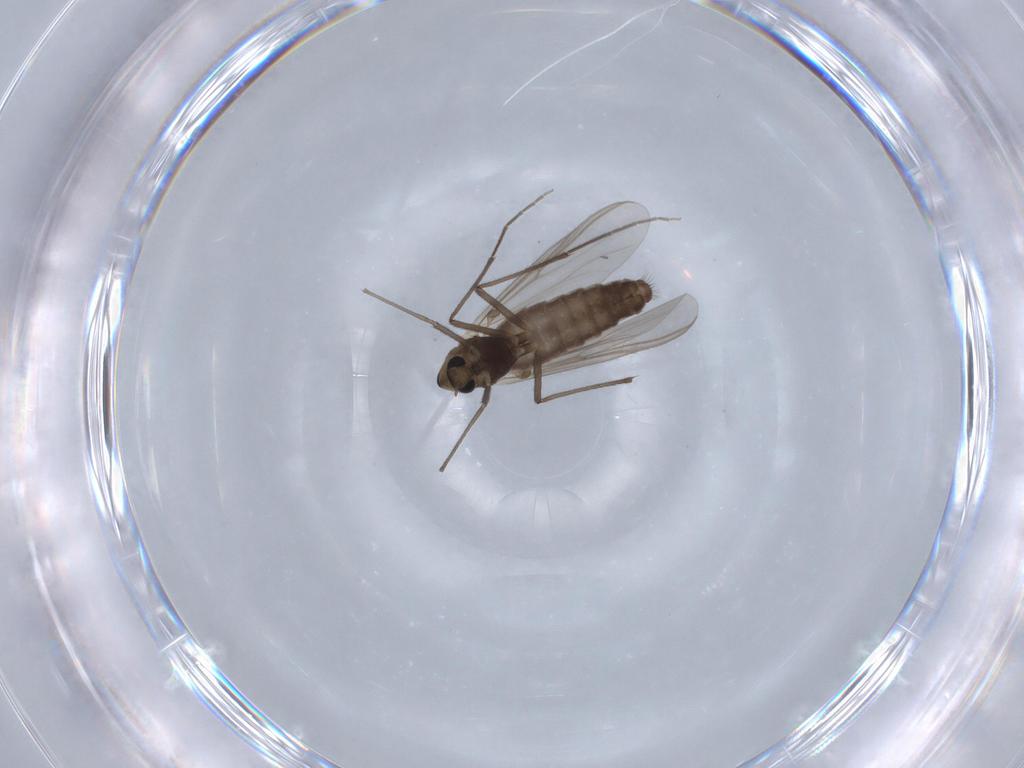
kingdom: Animalia
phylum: Arthropoda
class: Insecta
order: Diptera
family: Chironomidae
